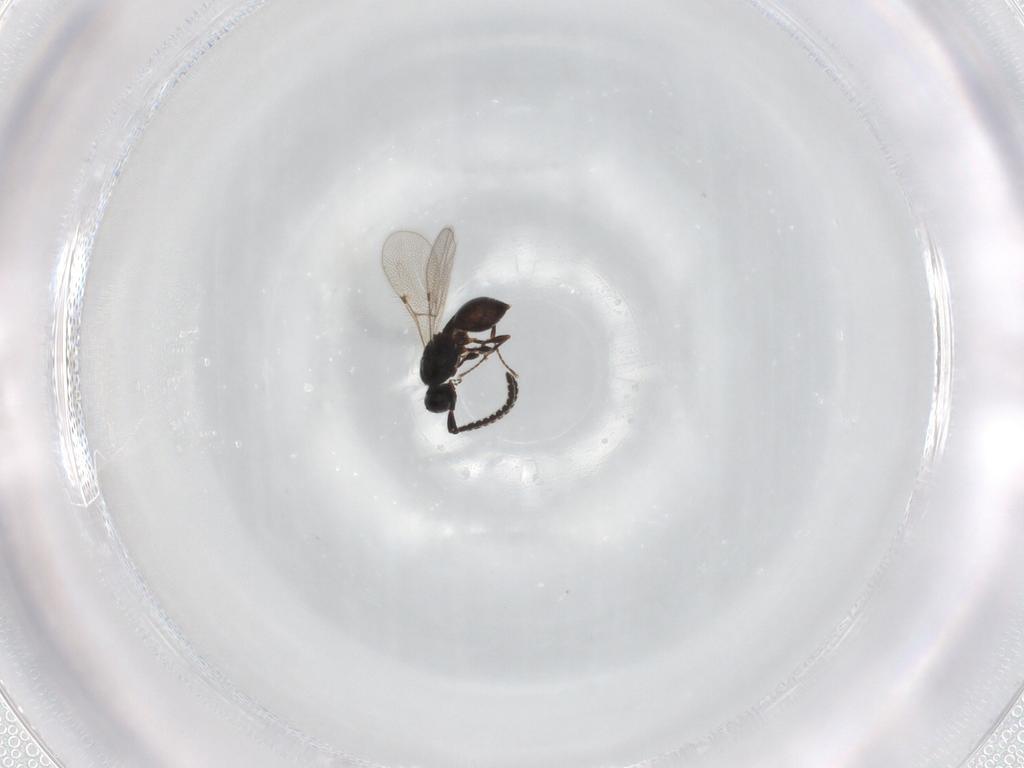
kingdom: Animalia
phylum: Arthropoda
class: Insecta
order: Hymenoptera
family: Diapriidae
